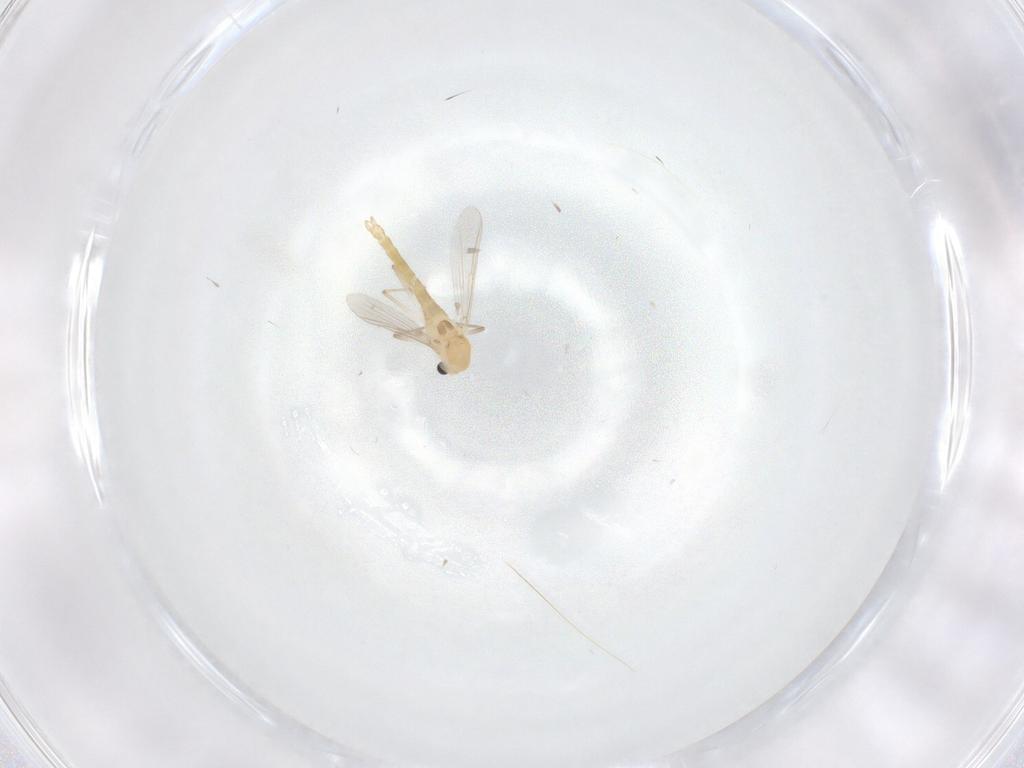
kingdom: Animalia
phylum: Arthropoda
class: Insecta
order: Diptera
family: Chironomidae
